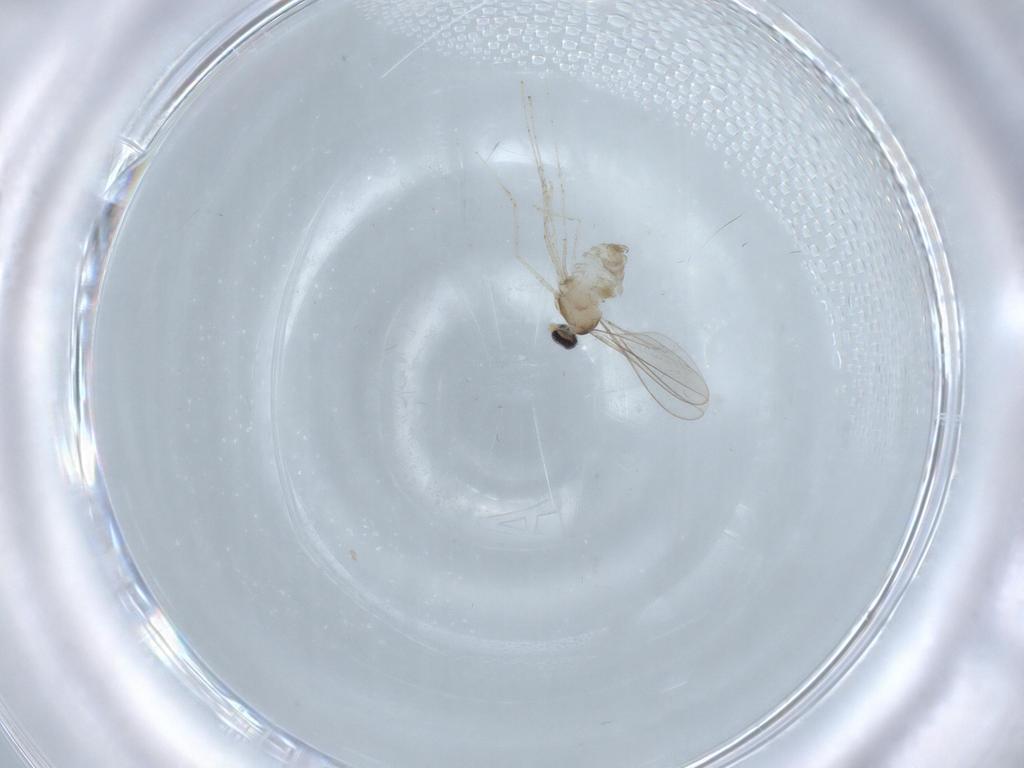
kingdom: Animalia
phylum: Arthropoda
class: Insecta
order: Diptera
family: Cecidomyiidae
